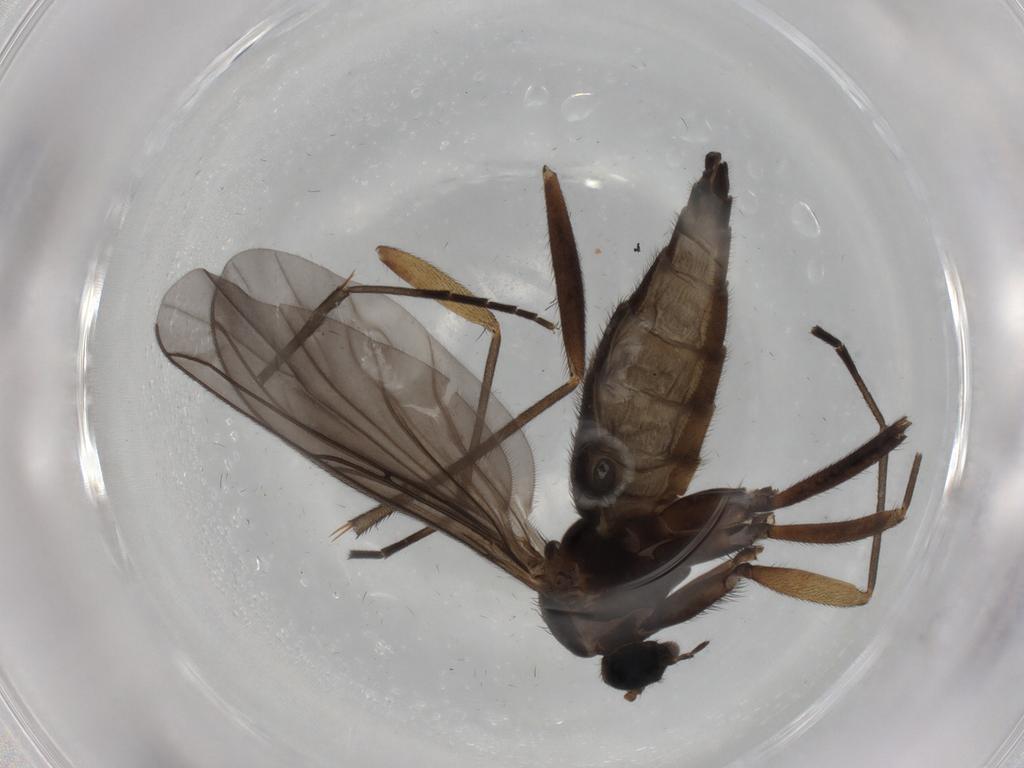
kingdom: Animalia
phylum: Arthropoda
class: Insecta
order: Diptera
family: Sciaridae
